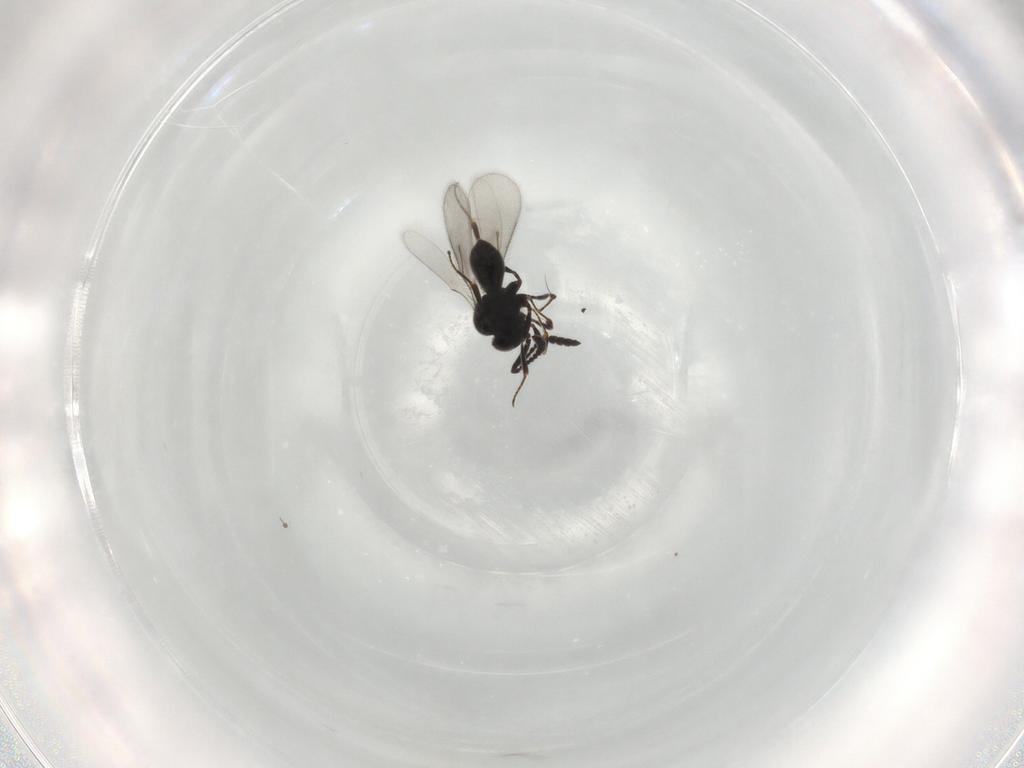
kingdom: Animalia
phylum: Arthropoda
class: Insecta
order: Hymenoptera
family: Scelionidae
